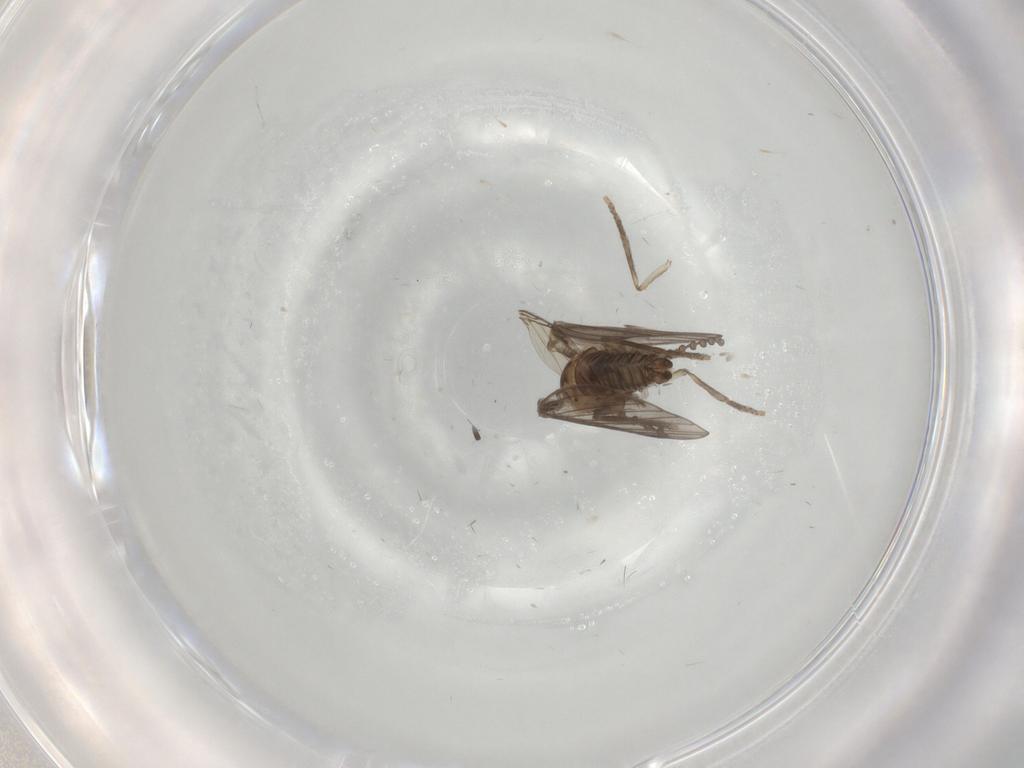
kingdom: Animalia
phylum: Arthropoda
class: Insecta
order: Diptera
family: Psychodidae
